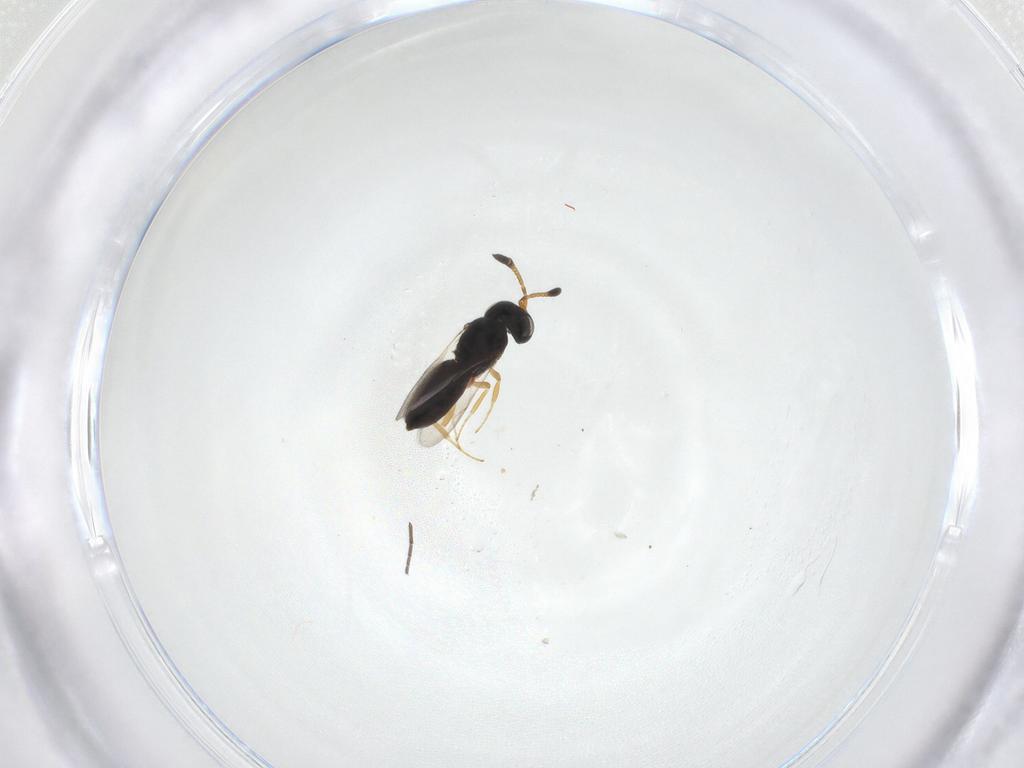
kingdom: Animalia
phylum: Arthropoda
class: Insecta
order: Hymenoptera
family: Scelionidae
